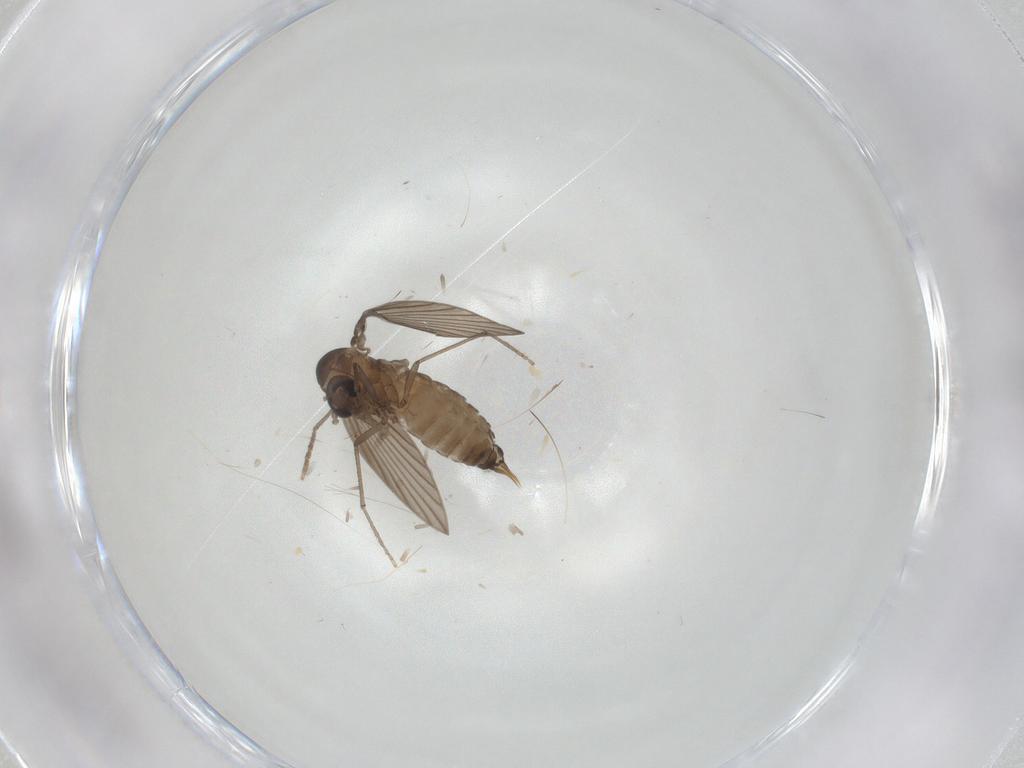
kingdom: Animalia
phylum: Arthropoda
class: Insecta
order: Diptera
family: Psychodidae
